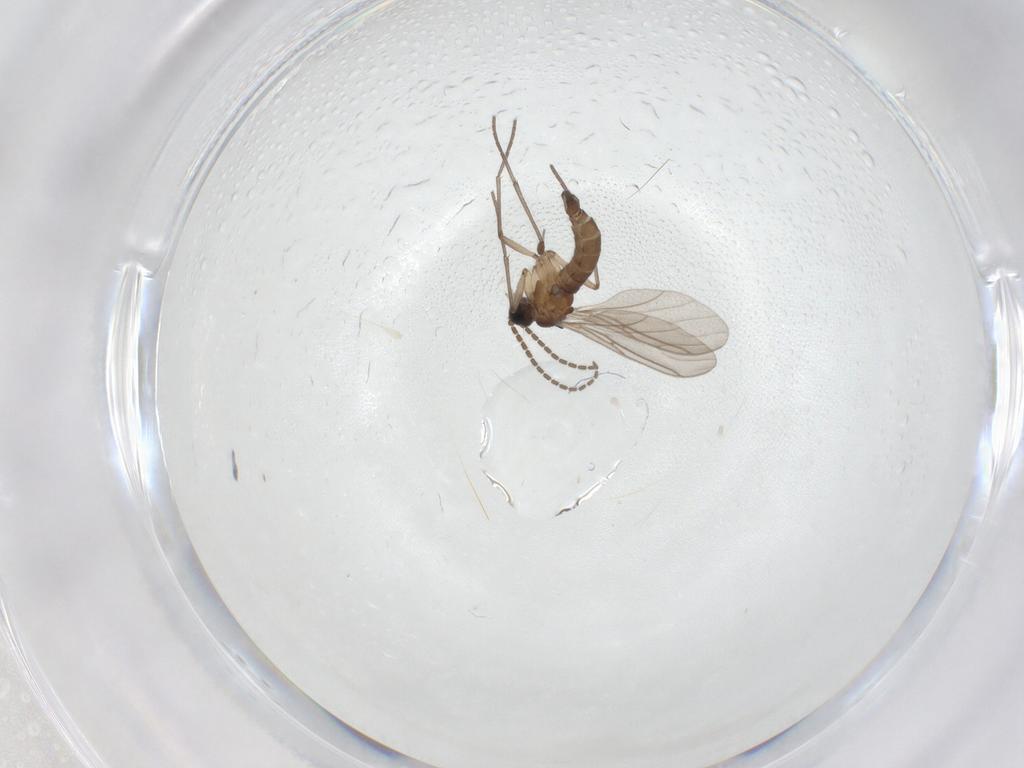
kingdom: Animalia
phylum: Arthropoda
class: Insecta
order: Diptera
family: Sciaridae
